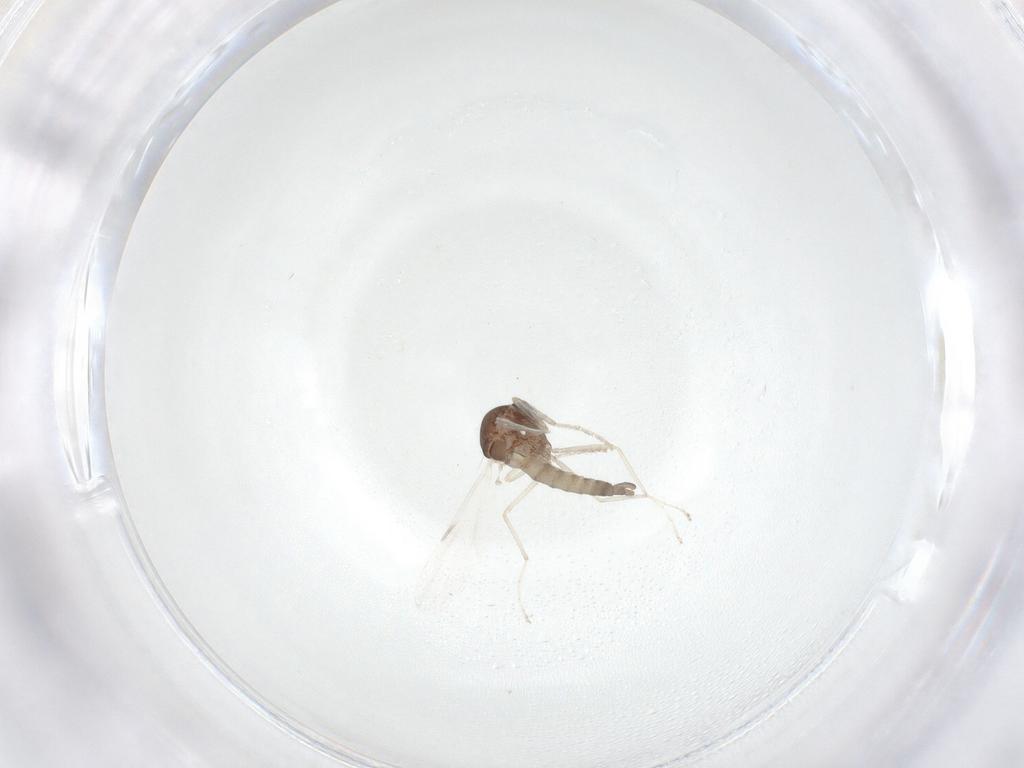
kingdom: Animalia
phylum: Arthropoda
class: Insecta
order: Diptera
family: Ceratopogonidae
